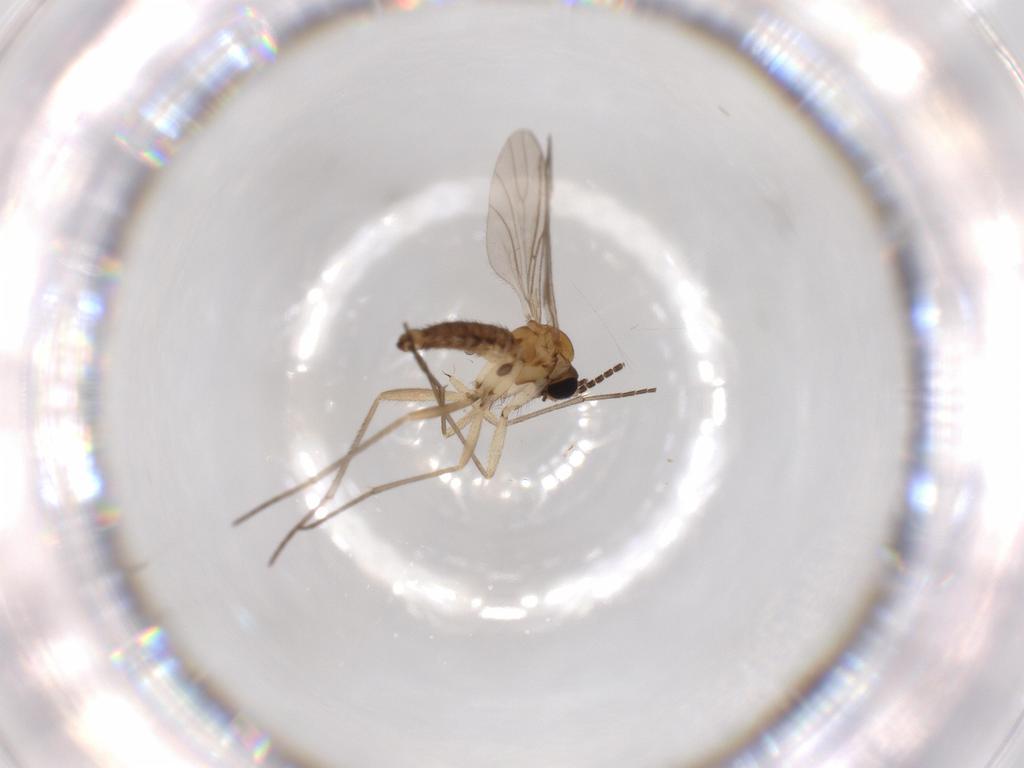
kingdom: Animalia
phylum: Arthropoda
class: Insecta
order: Diptera
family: Sciaridae
